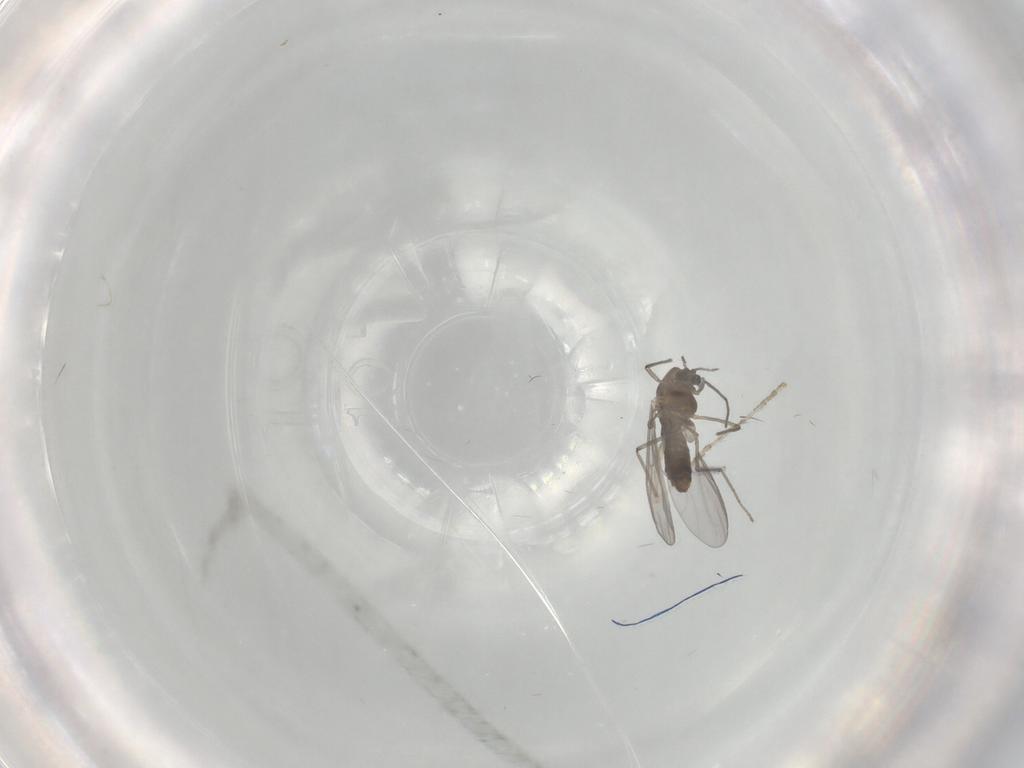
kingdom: Animalia
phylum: Arthropoda
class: Insecta
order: Diptera
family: Chironomidae
